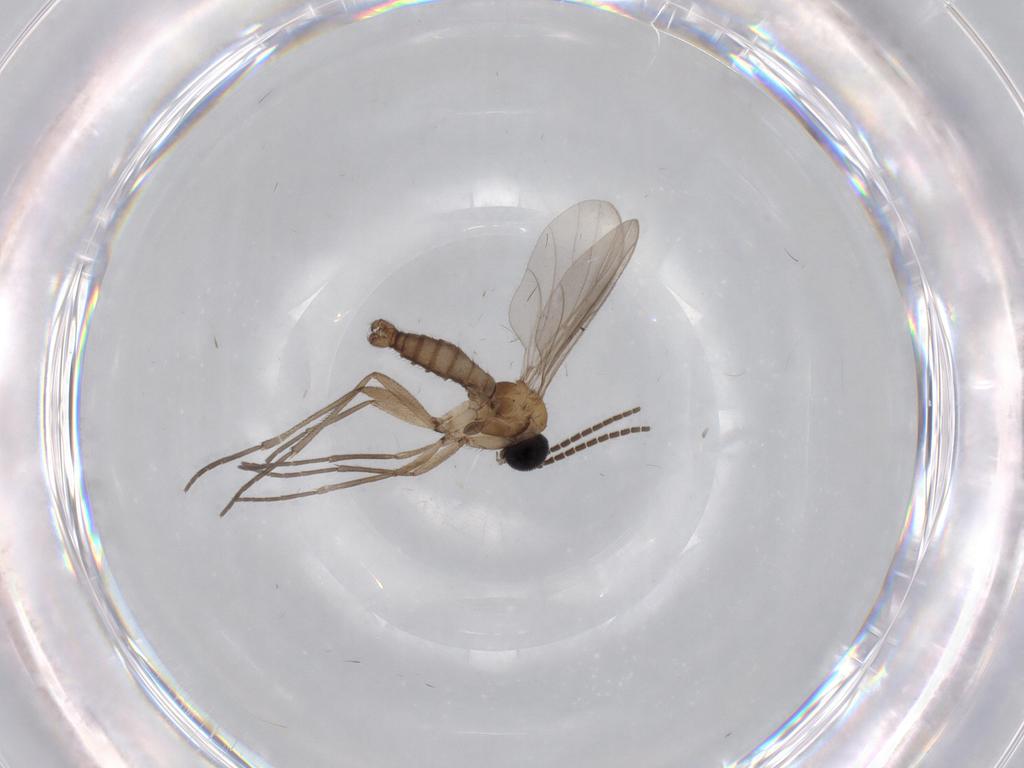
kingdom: Animalia
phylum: Arthropoda
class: Insecta
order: Diptera
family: Sciaridae
